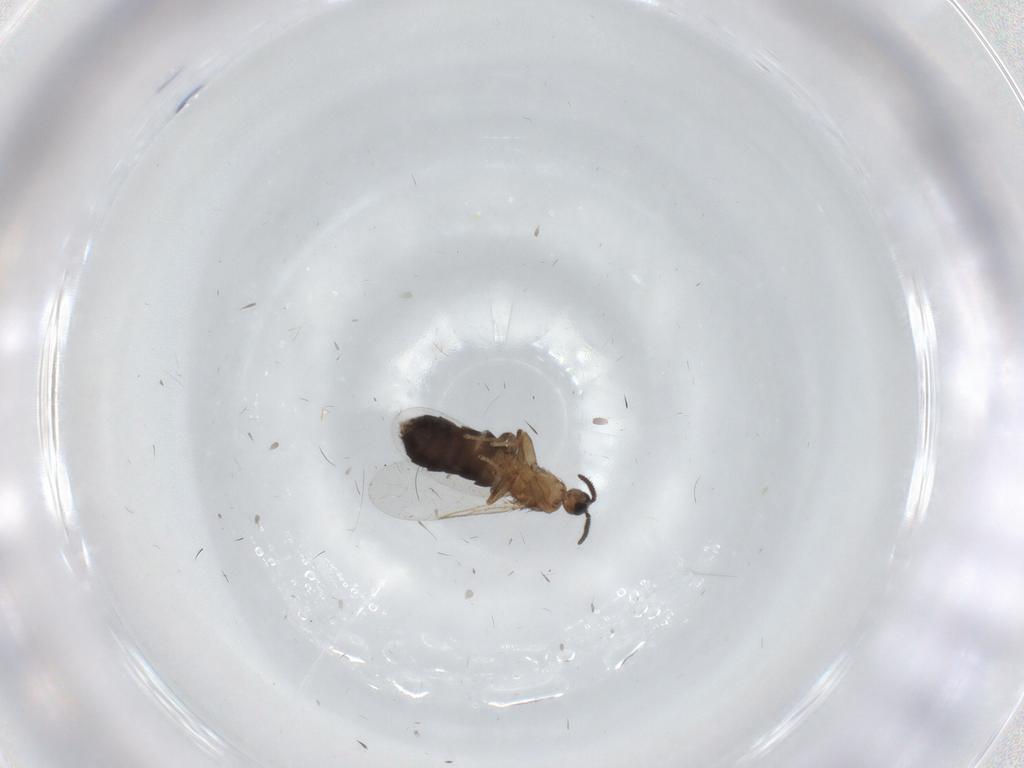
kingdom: Animalia
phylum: Arthropoda
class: Insecta
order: Diptera
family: Scatopsidae
